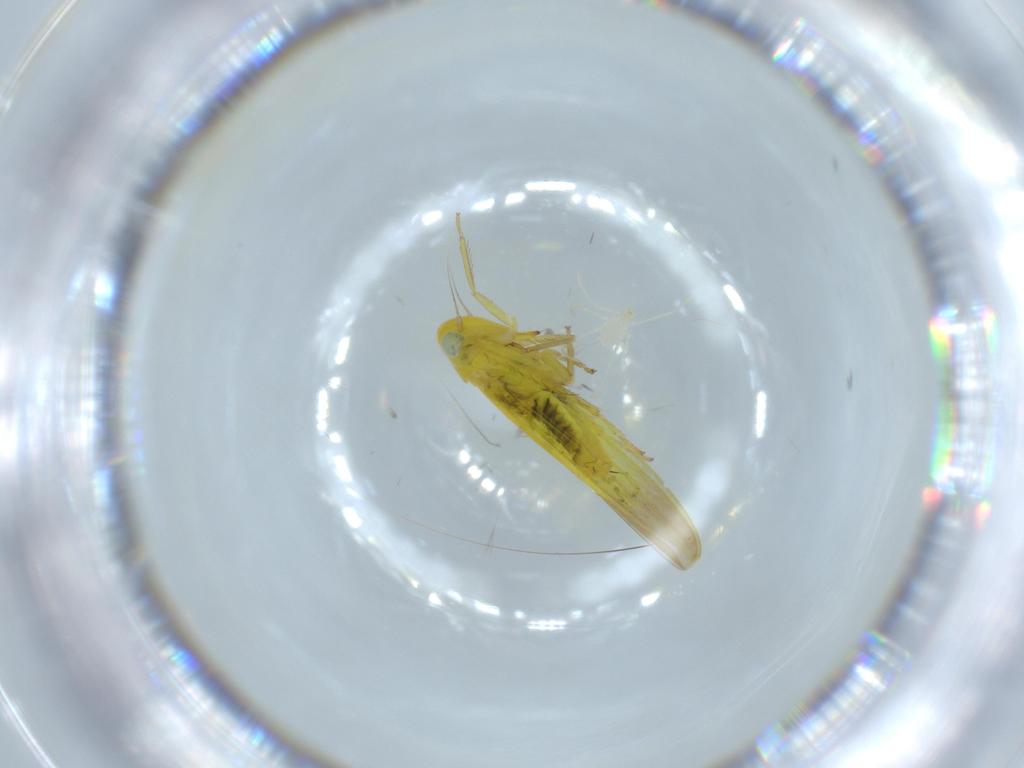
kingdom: Animalia
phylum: Arthropoda
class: Insecta
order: Hemiptera
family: Cicadellidae
